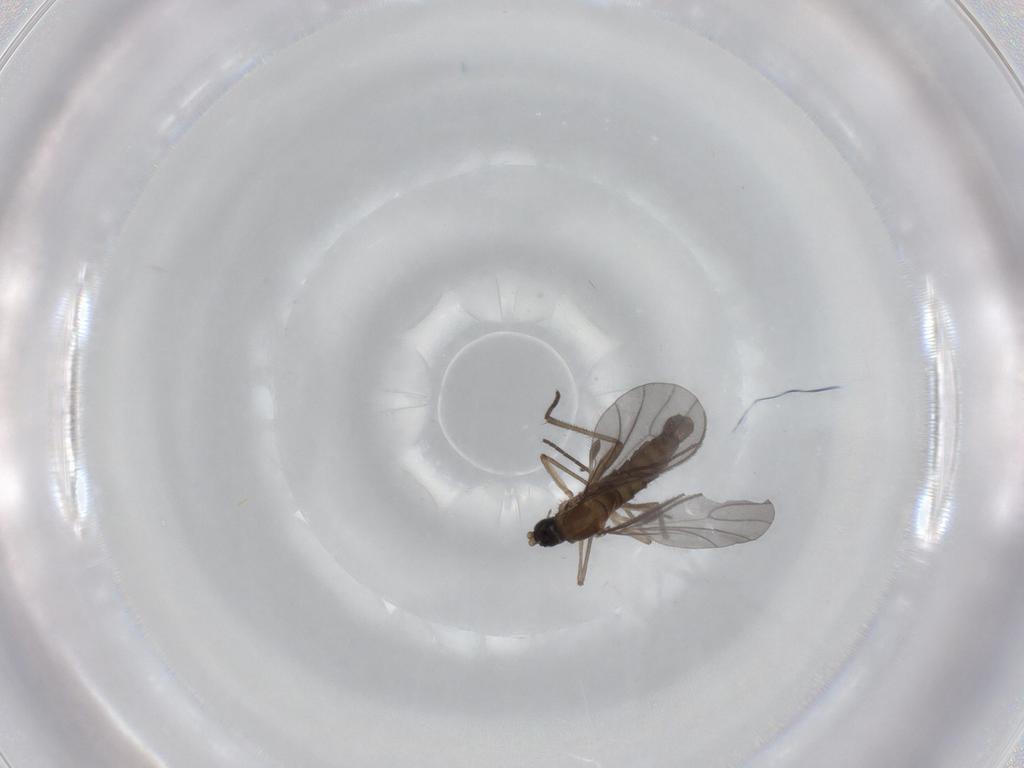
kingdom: Animalia
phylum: Arthropoda
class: Insecta
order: Diptera
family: Sciaridae
